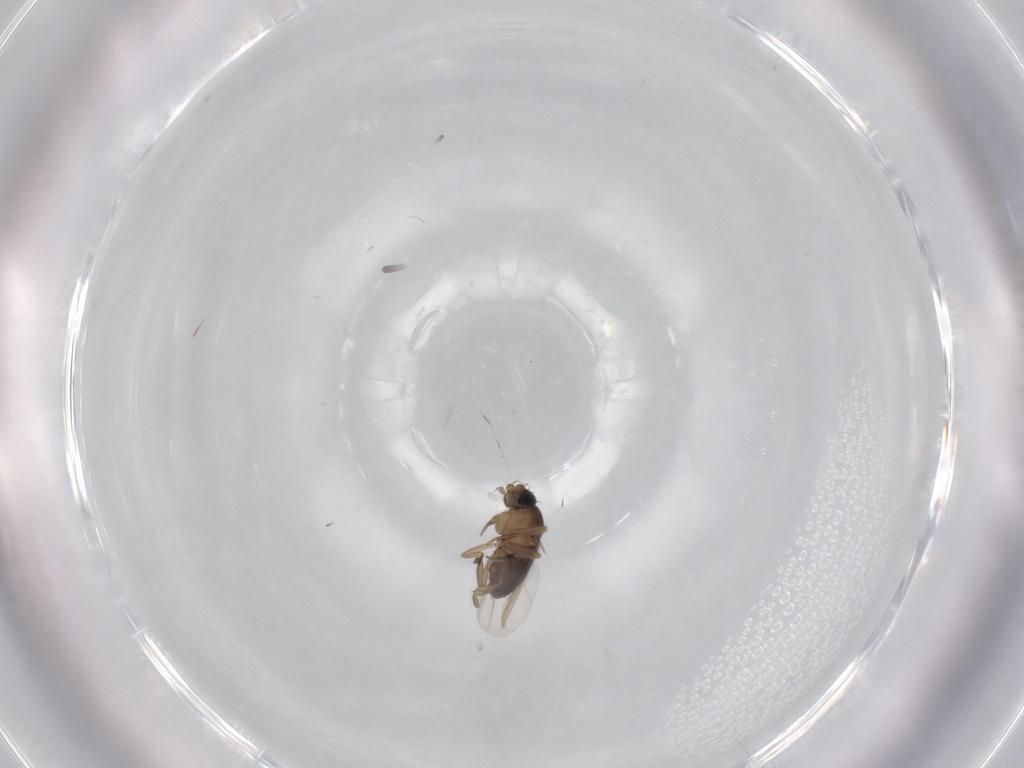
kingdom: Animalia
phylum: Arthropoda
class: Insecta
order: Diptera
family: Phoridae
